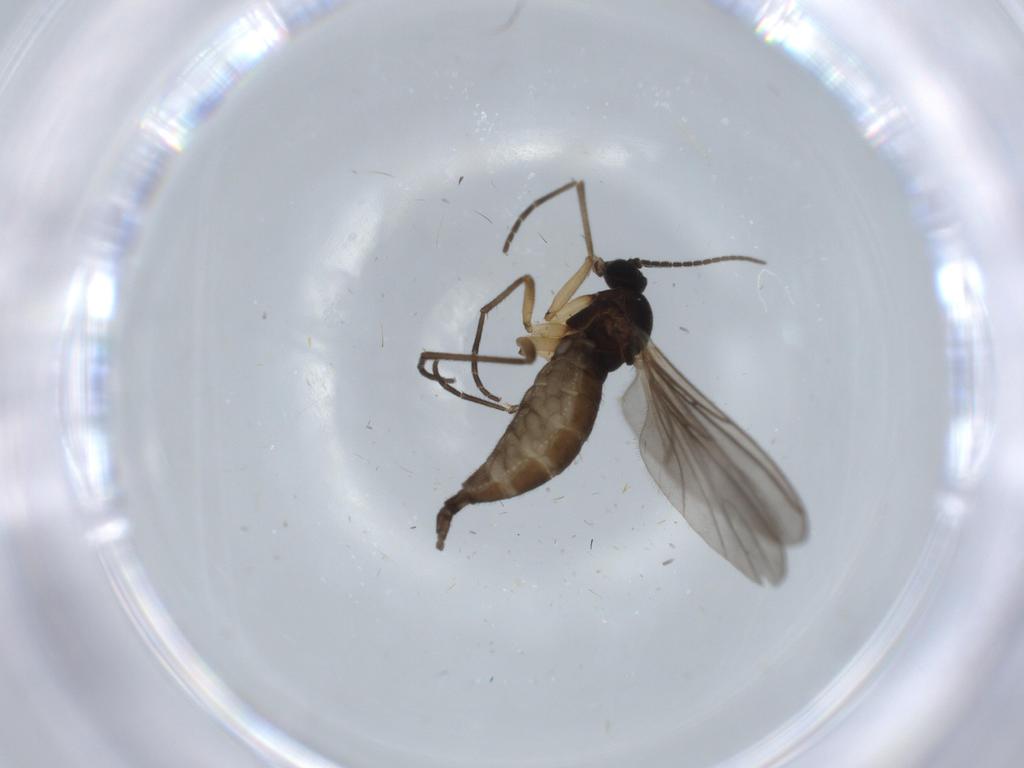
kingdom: Animalia
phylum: Arthropoda
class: Insecta
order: Diptera
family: Sciaridae
